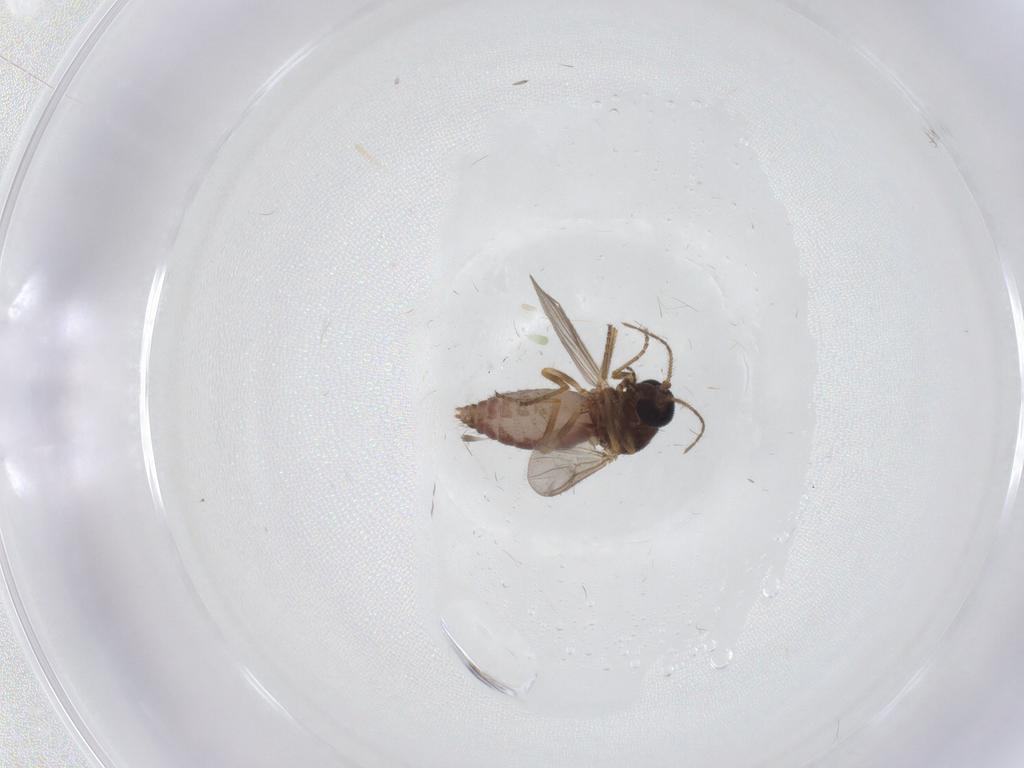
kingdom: Animalia
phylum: Arthropoda
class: Insecta
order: Diptera
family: Ceratopogonidae
